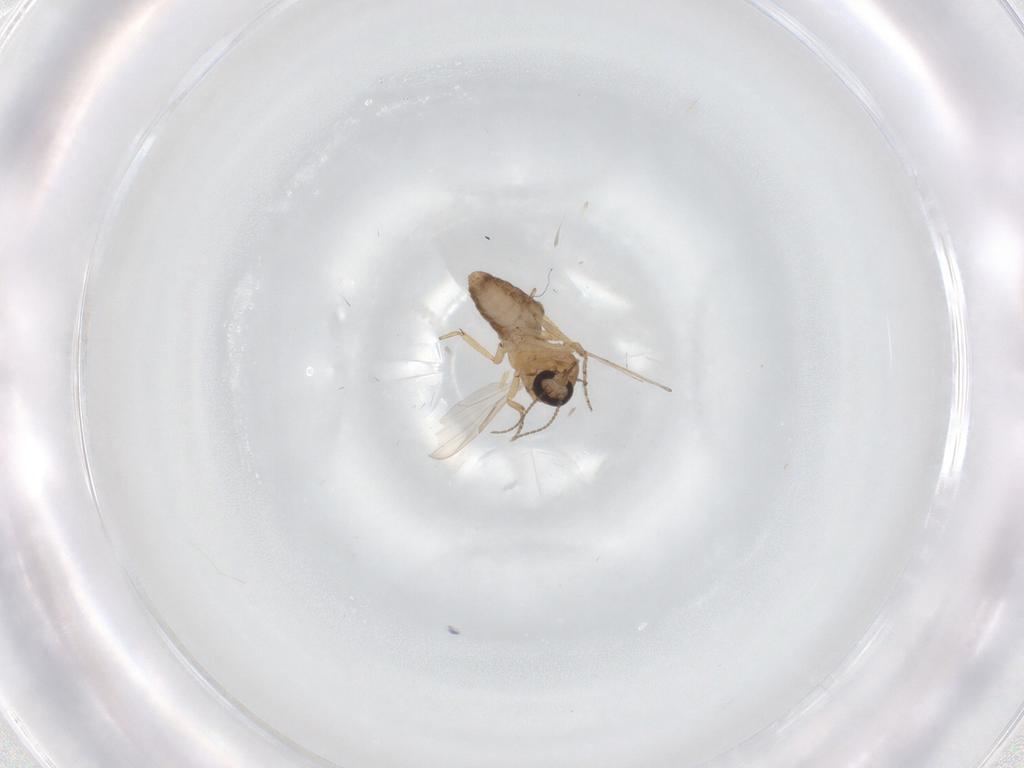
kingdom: Animalia
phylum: Arthropoda
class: Insecta
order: Diptera
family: Ceratopogonidae
